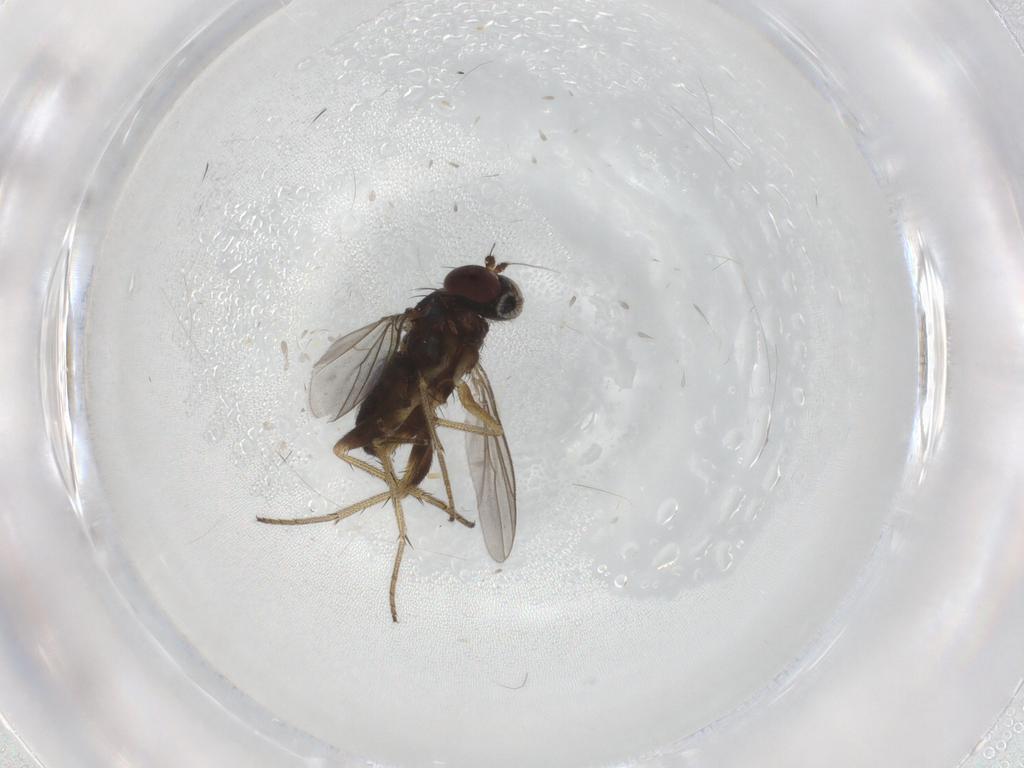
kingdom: Animalia
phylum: Arthropoda
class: Insecta
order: Diptera
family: Dolichopodidae
